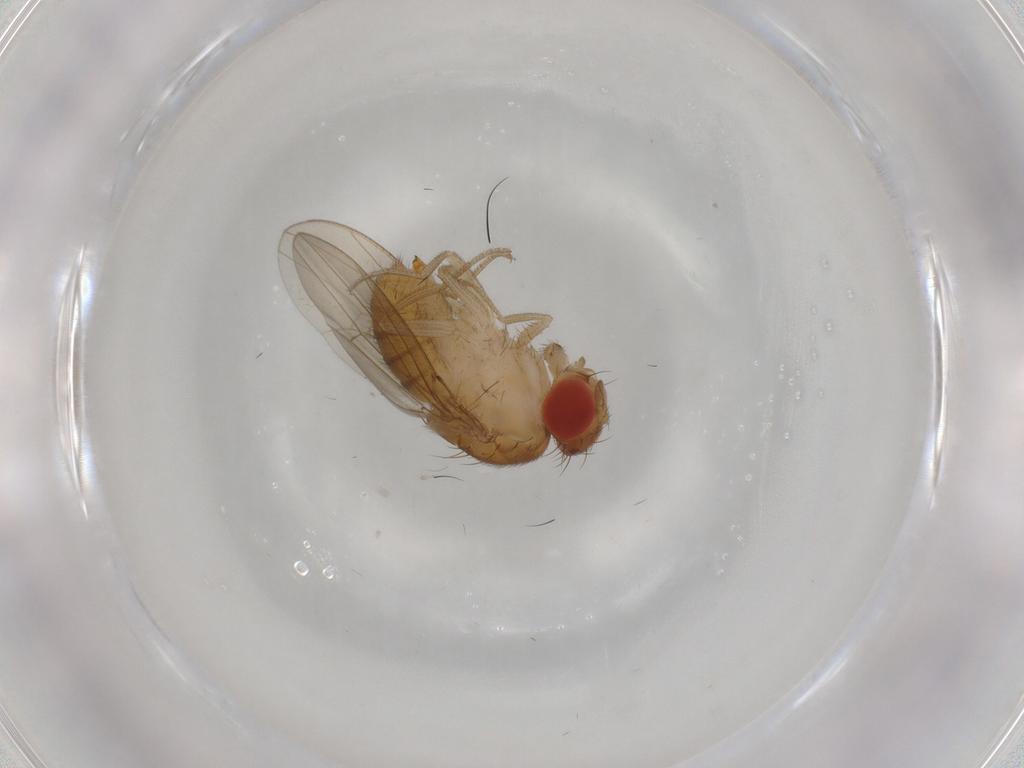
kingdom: Animalia
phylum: Arthropoda
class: Insecta
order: Diptera
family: Drosophilidae
